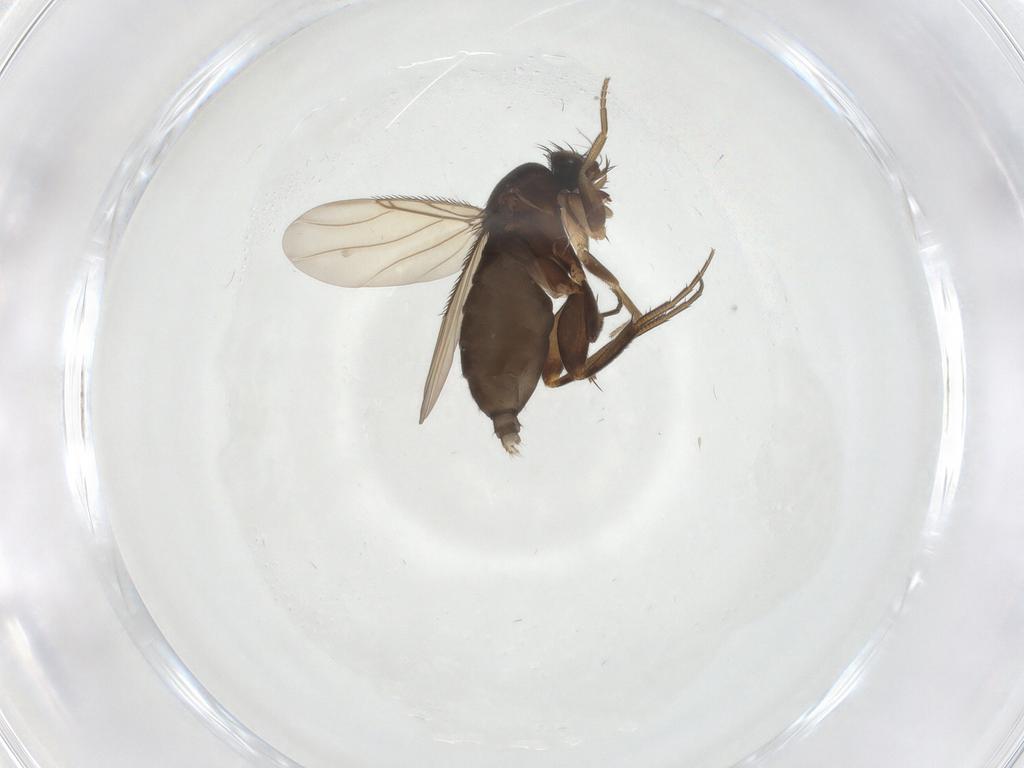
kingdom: Animalia
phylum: Arthropoda
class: Insecta
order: Diptera
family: Phoridae
